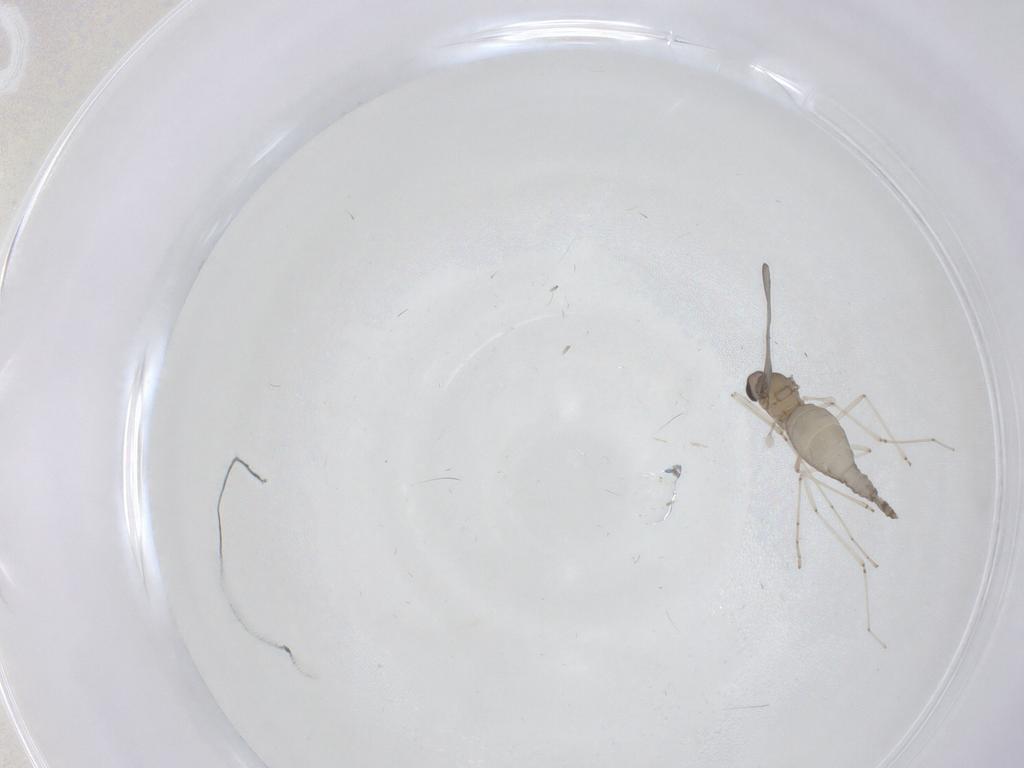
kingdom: Animalia
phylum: Arthropoda
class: Insecta
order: Diptera
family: Cecidomyiidae
